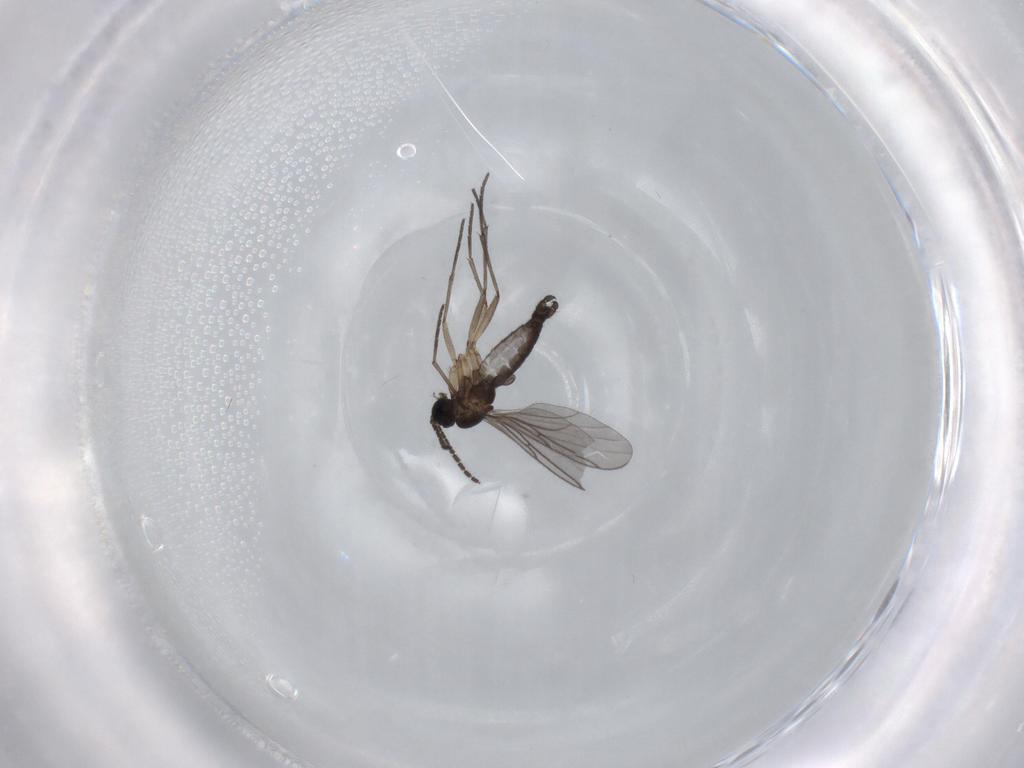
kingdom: Animalia
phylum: Arthropoda
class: Insecta
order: Diptera
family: Sciaridae
